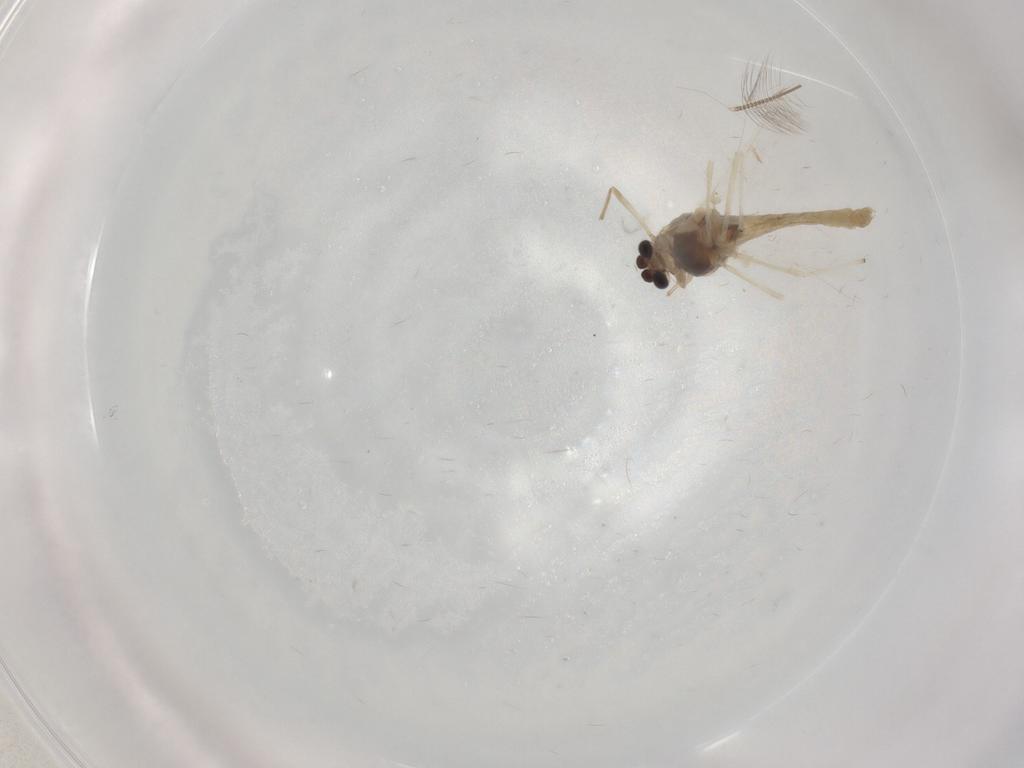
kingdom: Animalia
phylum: Arthropoda
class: Insecta
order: Diptera
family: Chironomidae
